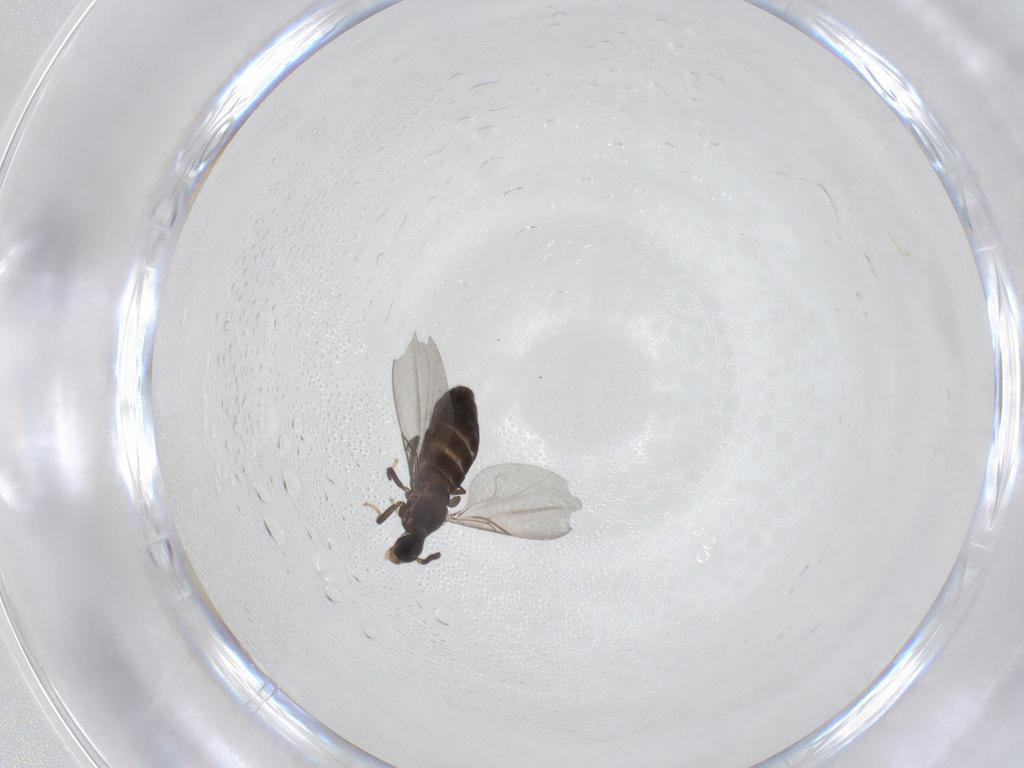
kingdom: Animalia
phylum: Arthropoda
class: Insecta
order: Diptera
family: Scatopsidae
